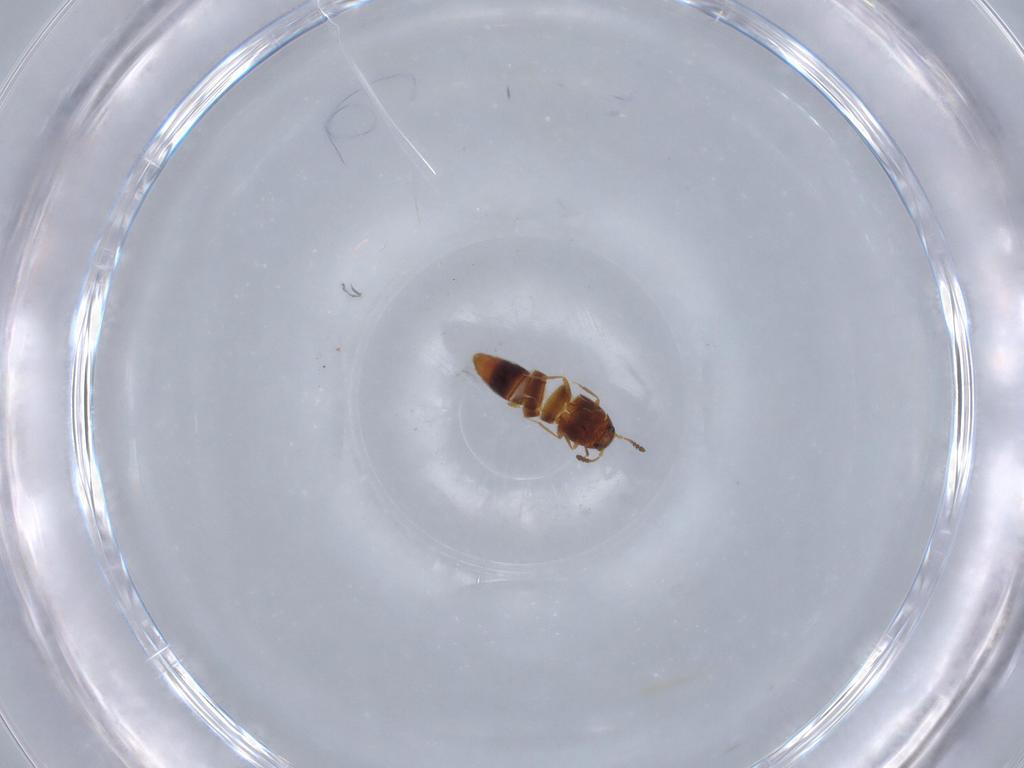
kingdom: Animalia
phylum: Arthropoda
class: Insecta
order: Coleoptera
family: Staphylinidae
